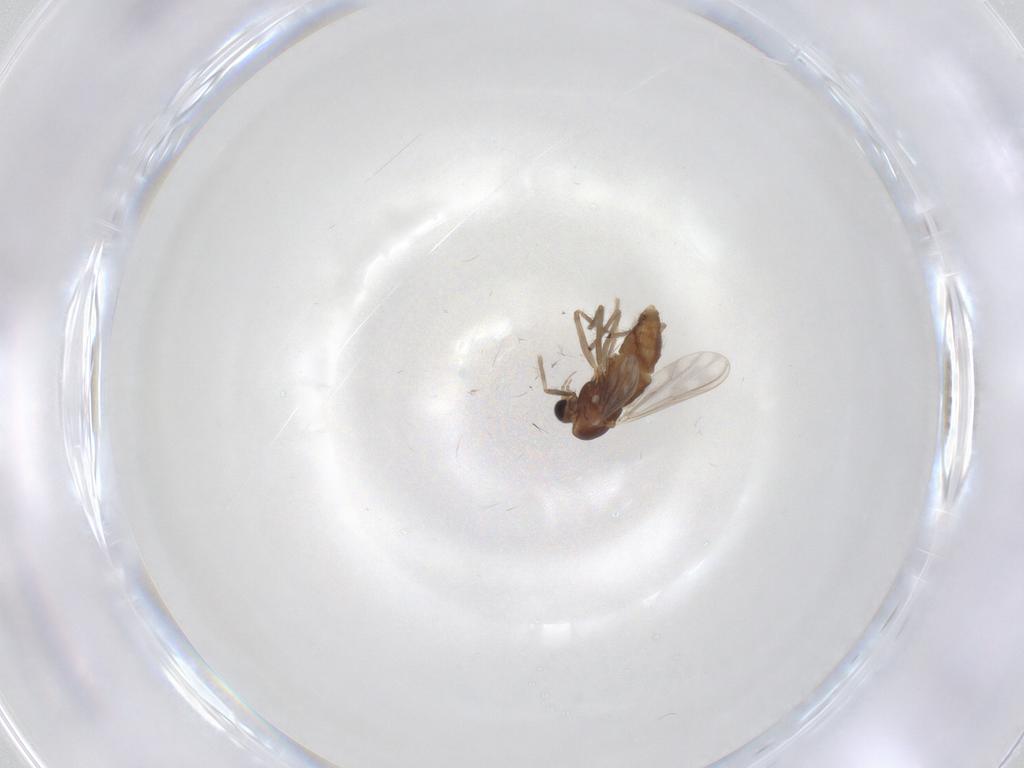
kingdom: Animalia
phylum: Arthropoda
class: Insecta
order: Diptera
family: Chironomidae
